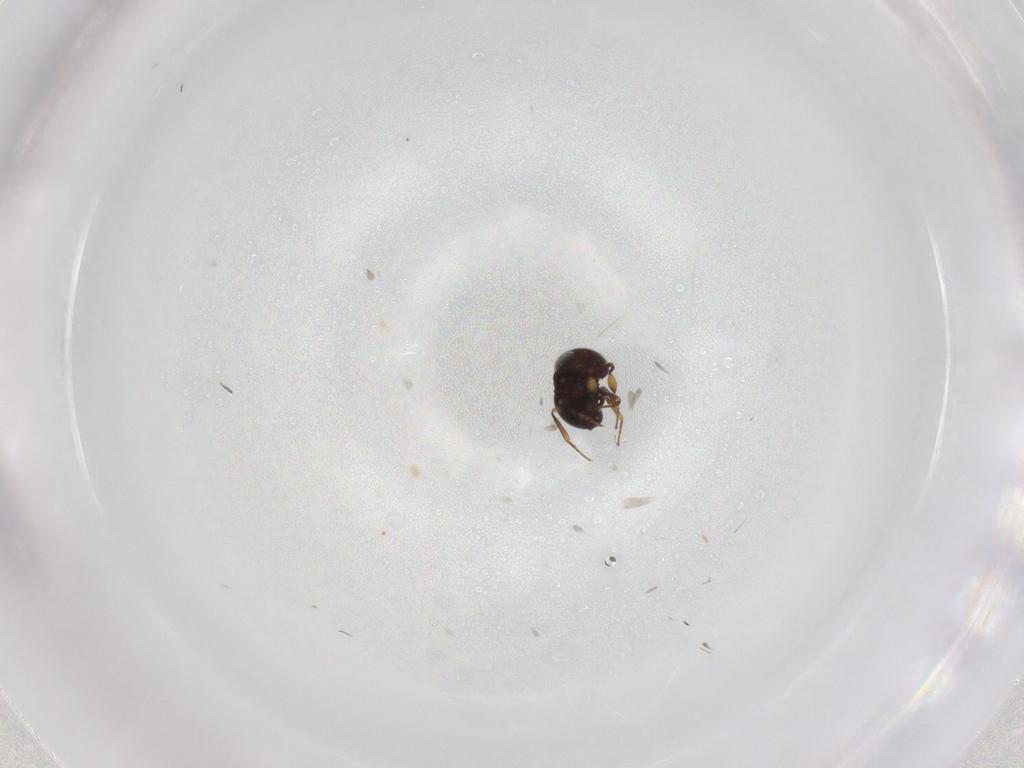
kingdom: Animalia
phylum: Arthropoda
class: Insecta
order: Hymenoptera
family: Scelionidae
